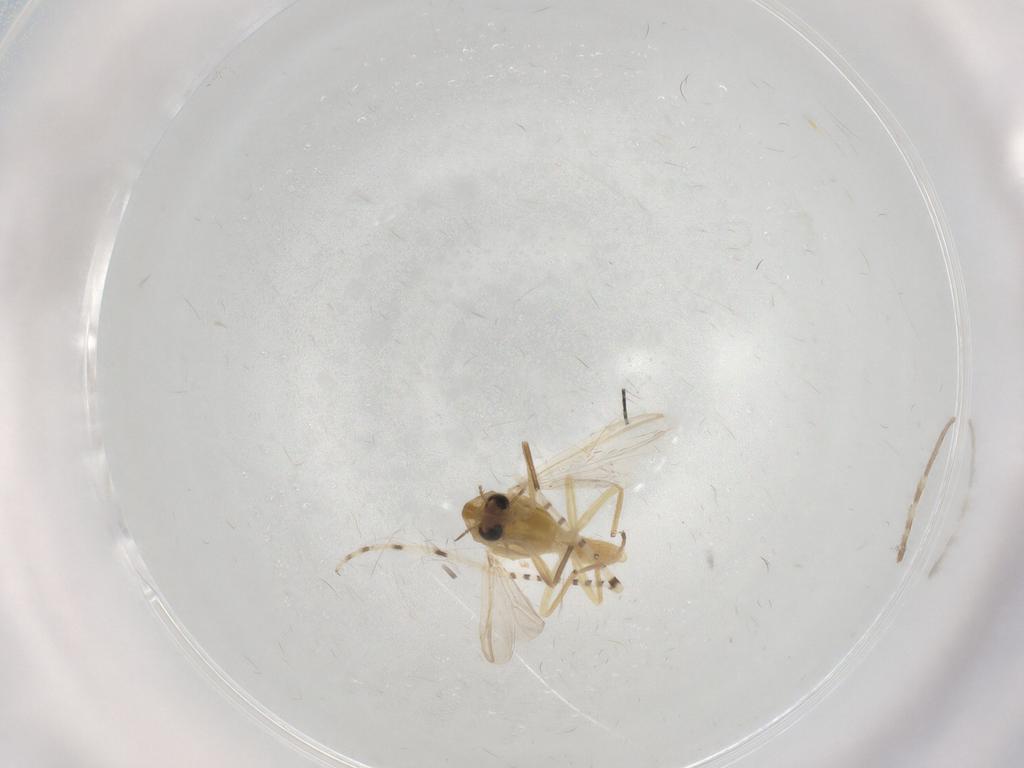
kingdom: Animalia
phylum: Arthropoda
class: Insecta
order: Diptera
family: Chironomidae
